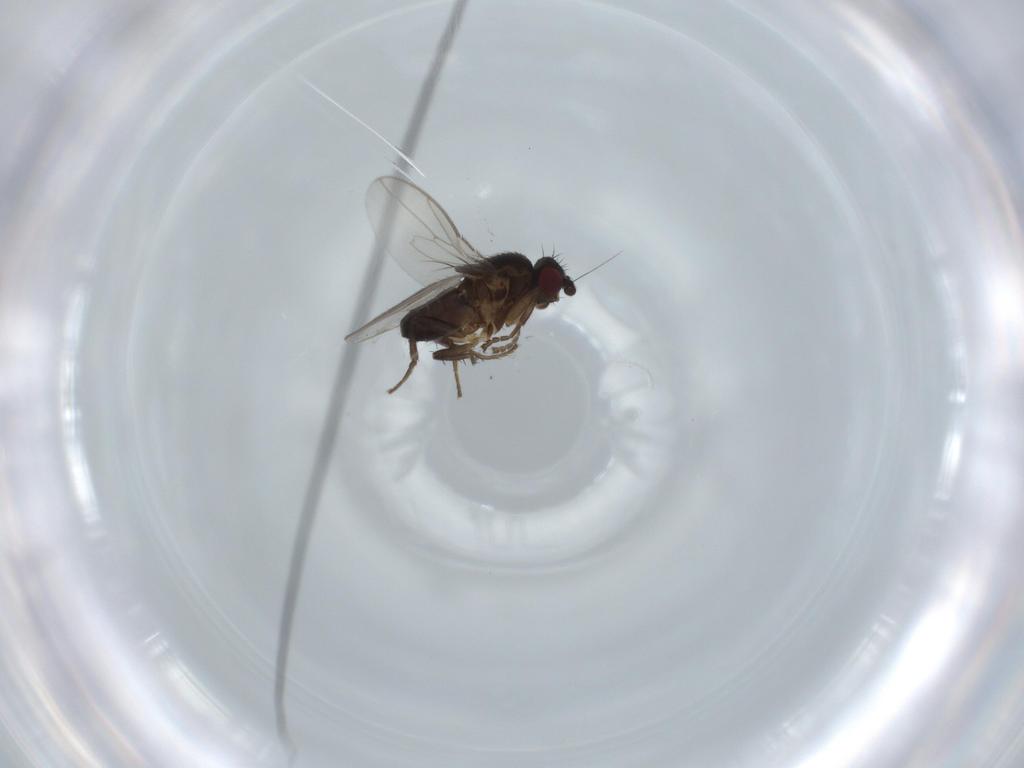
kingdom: Animalia
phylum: Arthropoda
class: Insecta
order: Diptera
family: Sphaeroceridae
